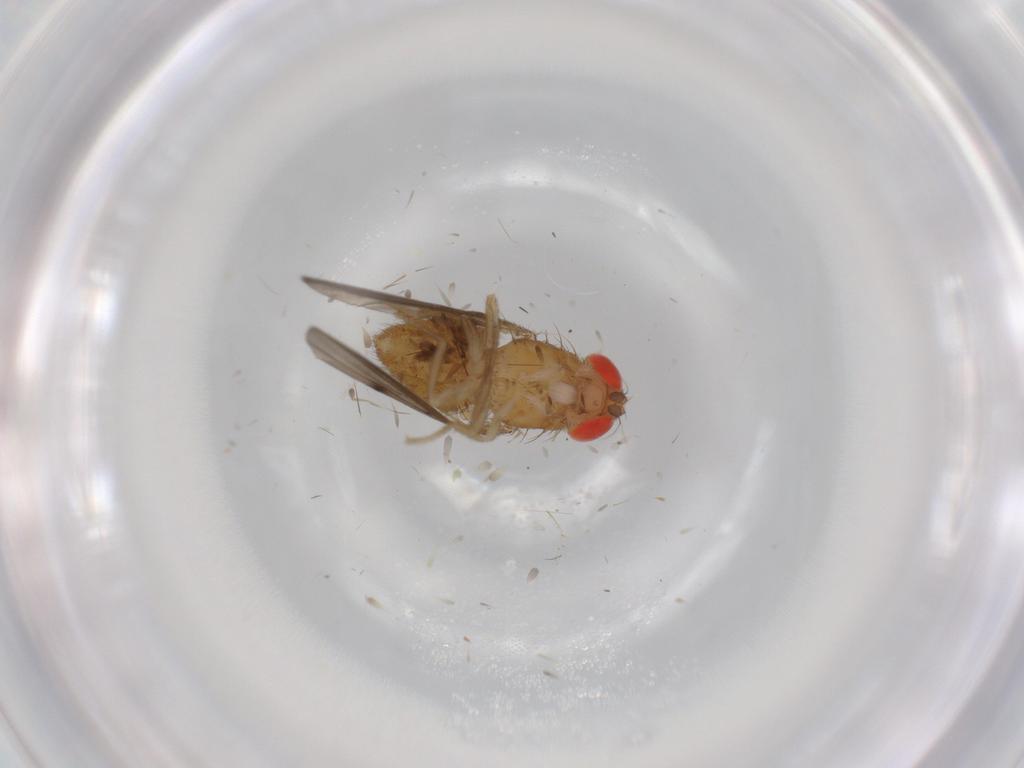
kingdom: Animalia
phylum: Arthropoda
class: Insecta
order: Diptera
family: Drosophilidae
